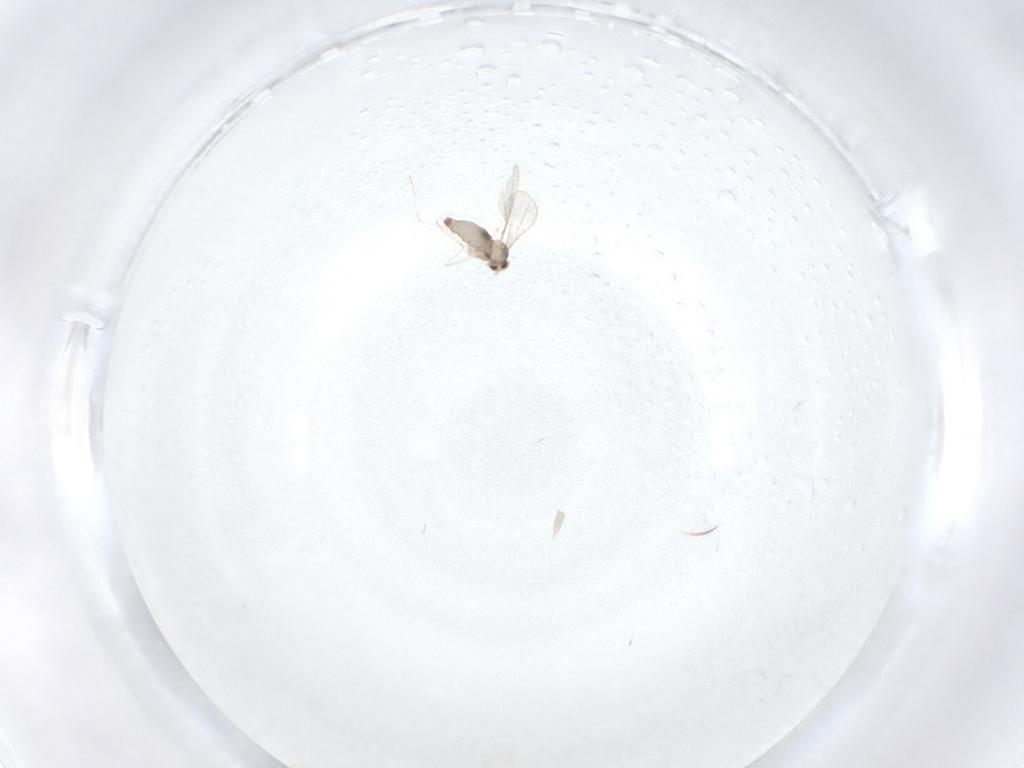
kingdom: Animalia
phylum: Arthropoda
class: Insecta
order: Diptera
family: Cecidomyiidae
